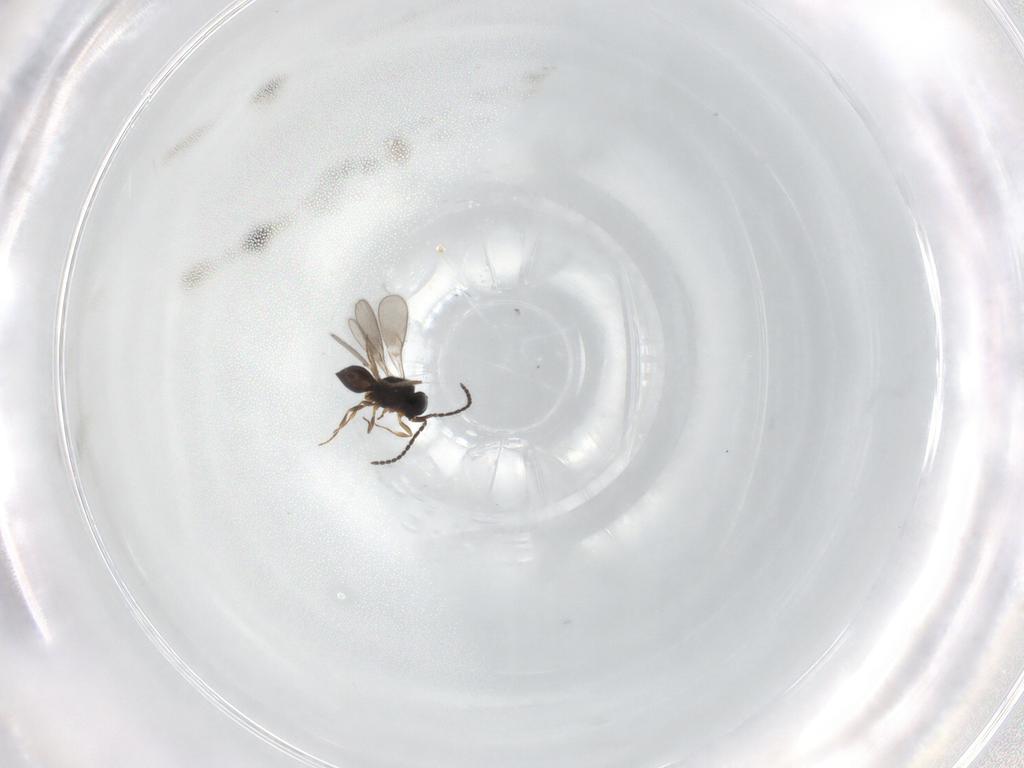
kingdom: Animalia
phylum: Arthropoda
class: Insecta
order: Hymenoptera
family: Scelionidae
